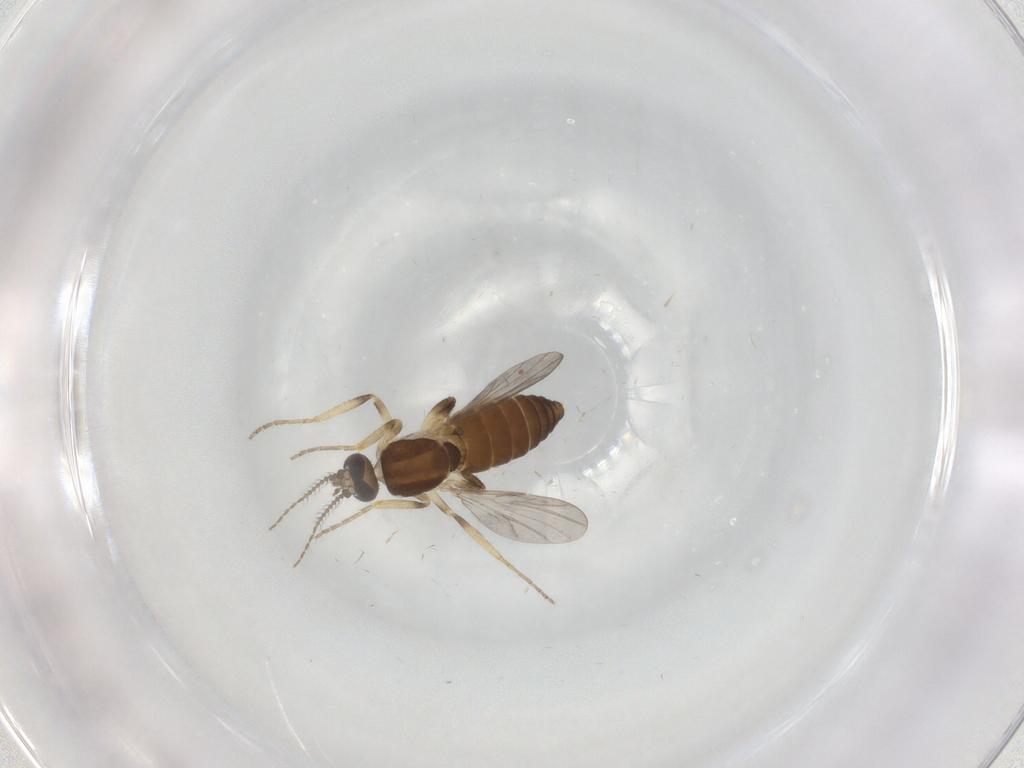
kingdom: Animalia
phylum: Arthropoda
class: Insecta
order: Diptera
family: Ceratopogonidae
